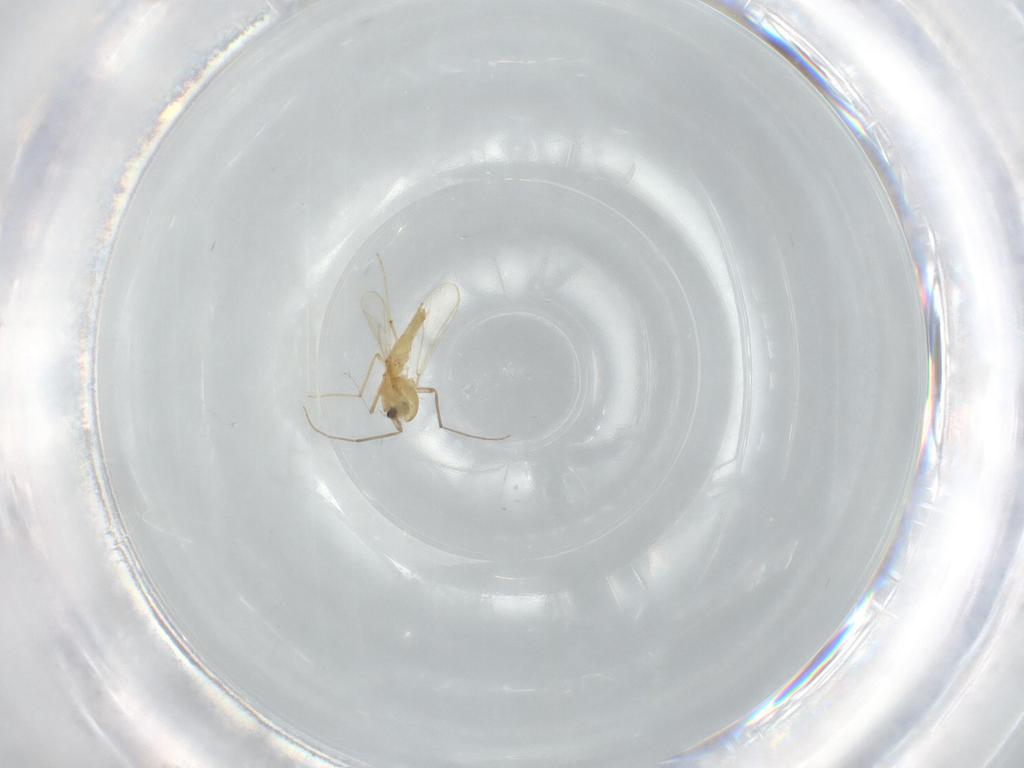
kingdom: Animalia
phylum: Arthropoda
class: Insecta
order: Diptera
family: Chironomidae
